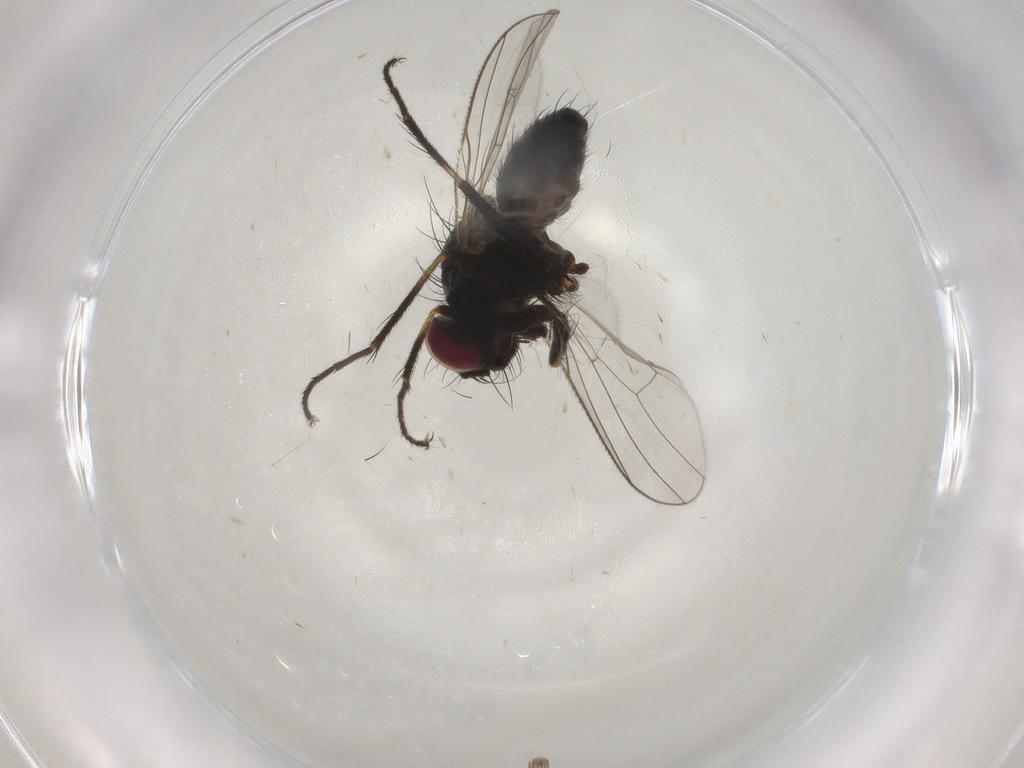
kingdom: Animalia
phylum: Arthropoda
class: Insecta
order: Diptera
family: Muscidae
